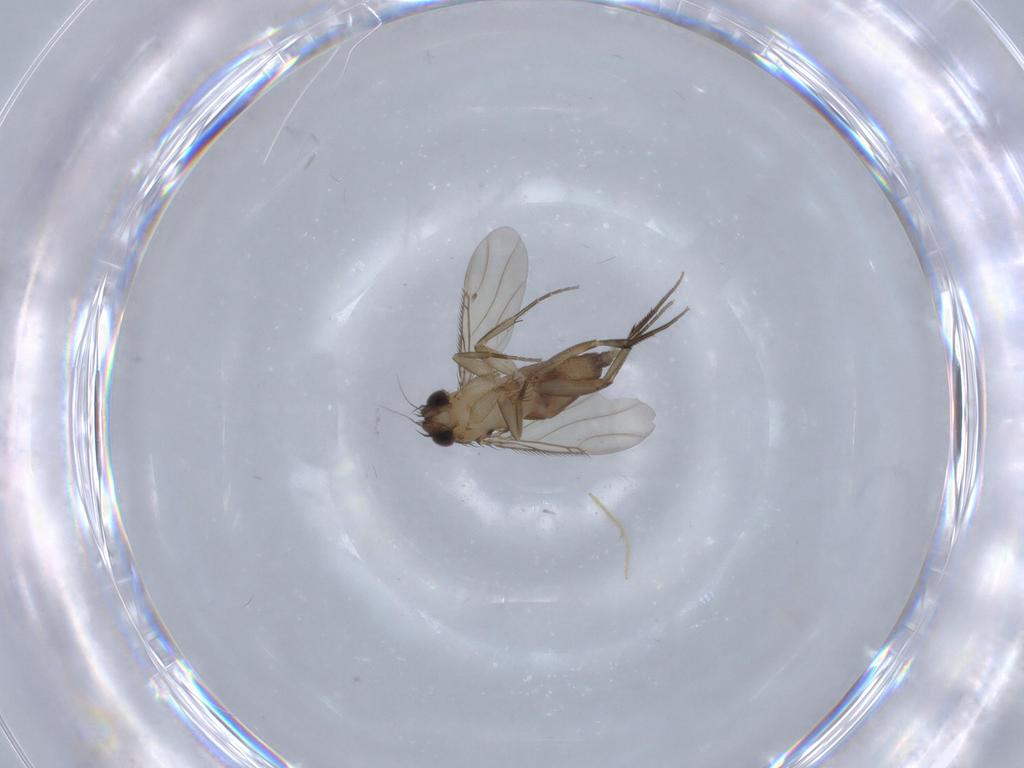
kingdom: Animalia
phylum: Arthropoda
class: Insecta
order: Diptera
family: Phoridae
